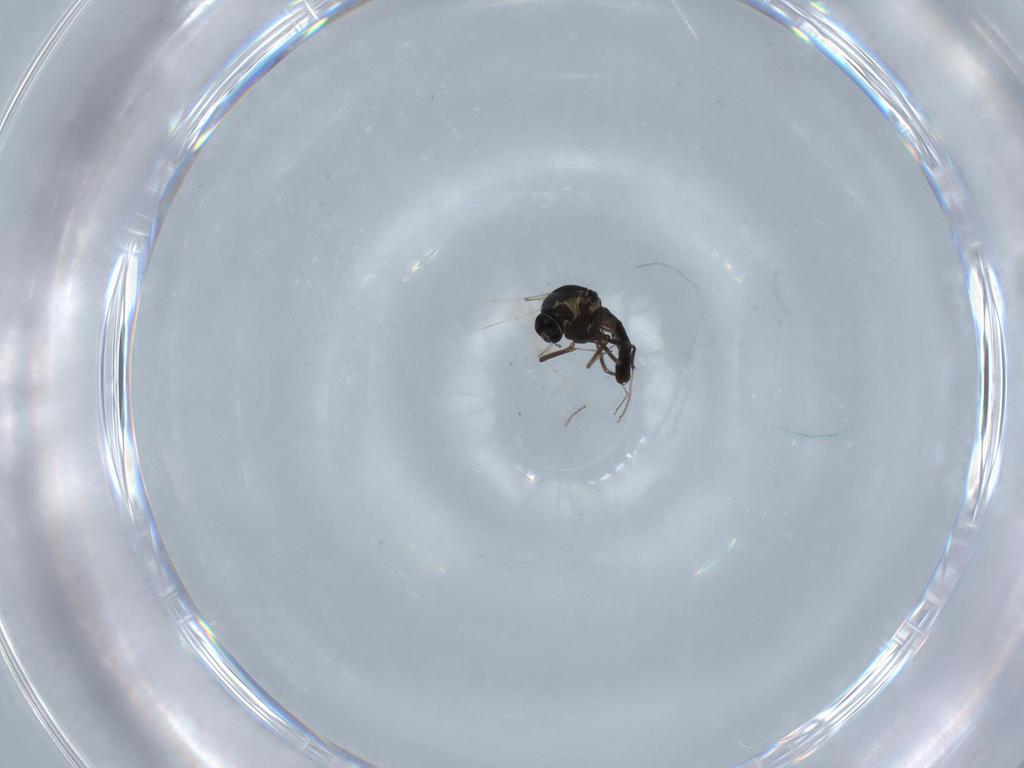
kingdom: Animalia
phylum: Arthropoda
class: Insecta
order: Diptera
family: Ceratopogonidae
